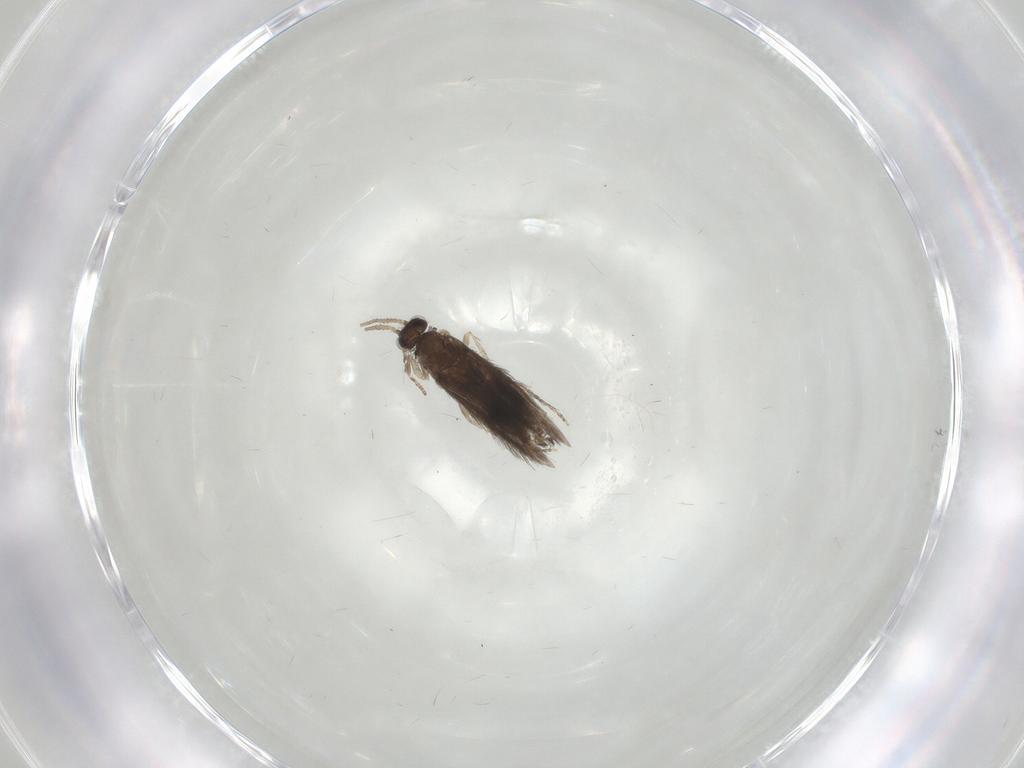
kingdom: Animalia
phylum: Arthropoda
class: Insecta
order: Trichoptera
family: Hydroptilidae
